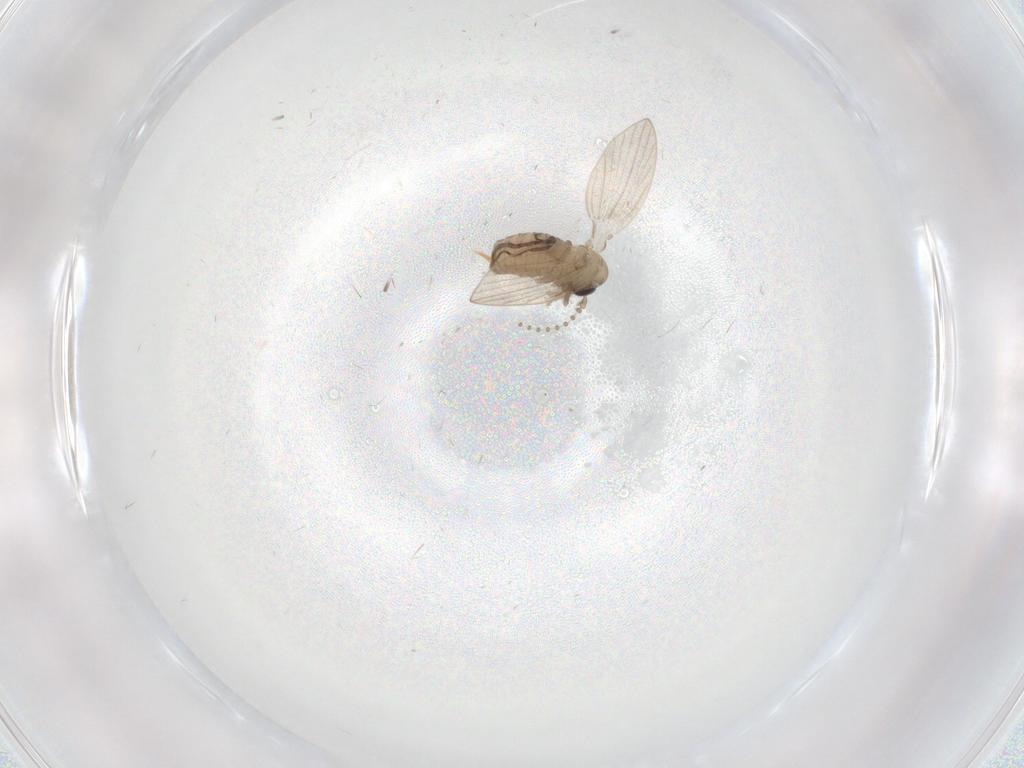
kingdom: Animalia
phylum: Arthropoda
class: Insecta
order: Diptera
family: Psychodidae
